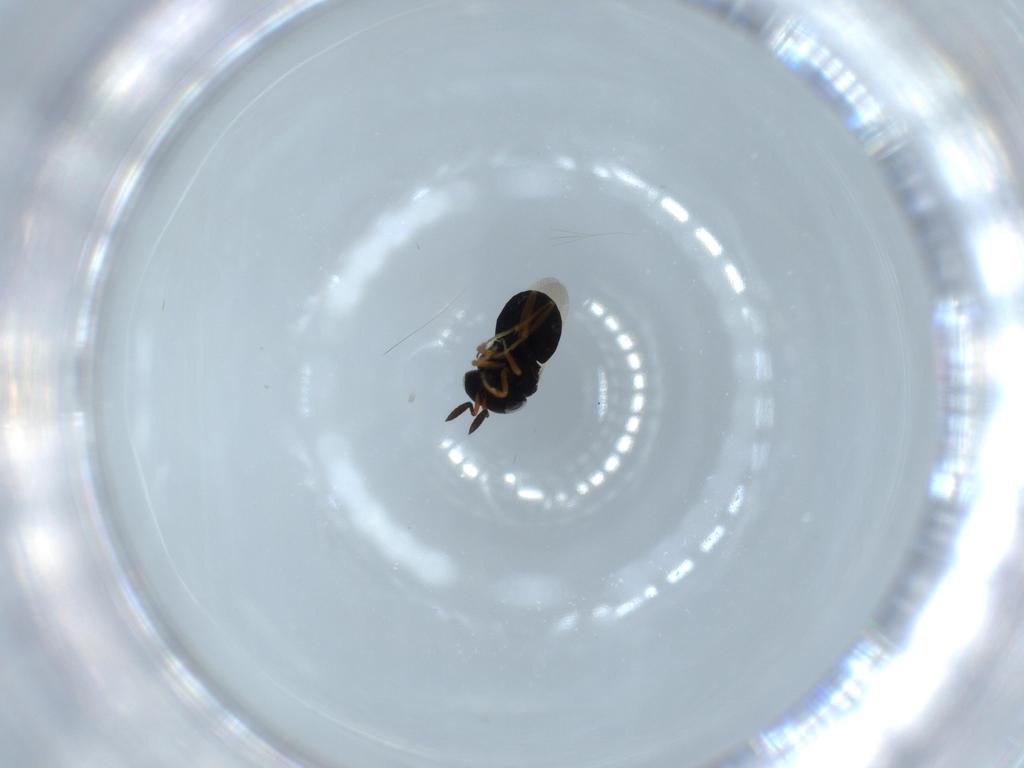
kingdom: Animalia
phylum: Arthropoda
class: Insecta
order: Hymenoptera
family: Scelionidae
